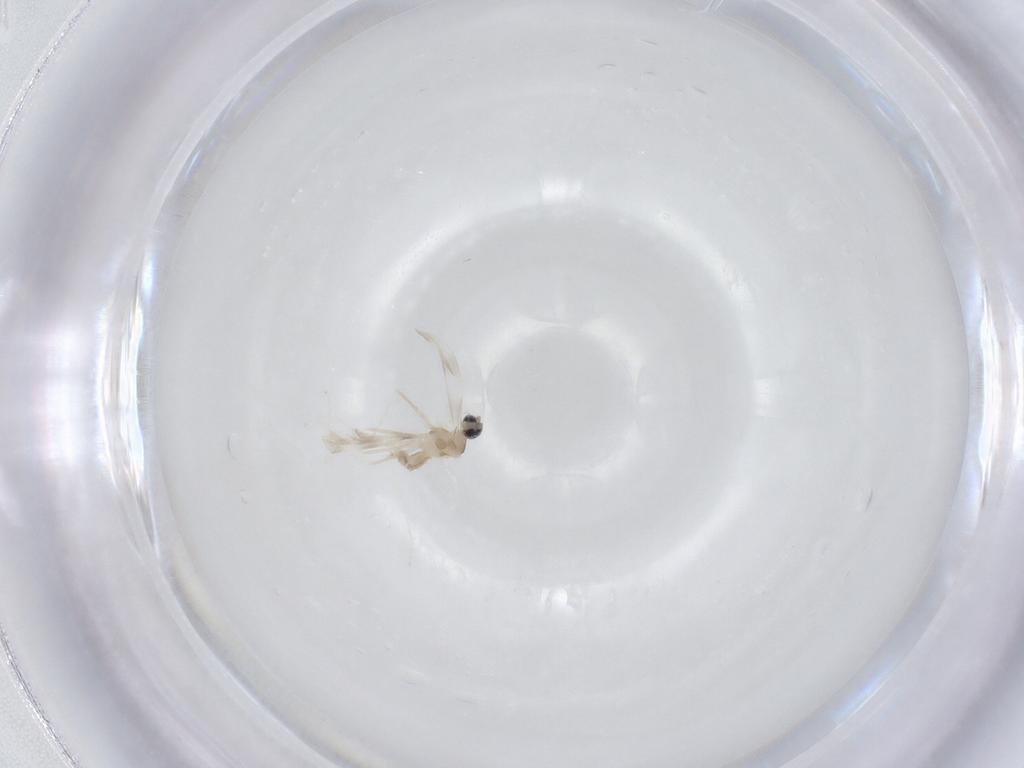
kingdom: Animalia
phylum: Arthropoda
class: Insecta
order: Diptera
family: Cecidomyiidae
